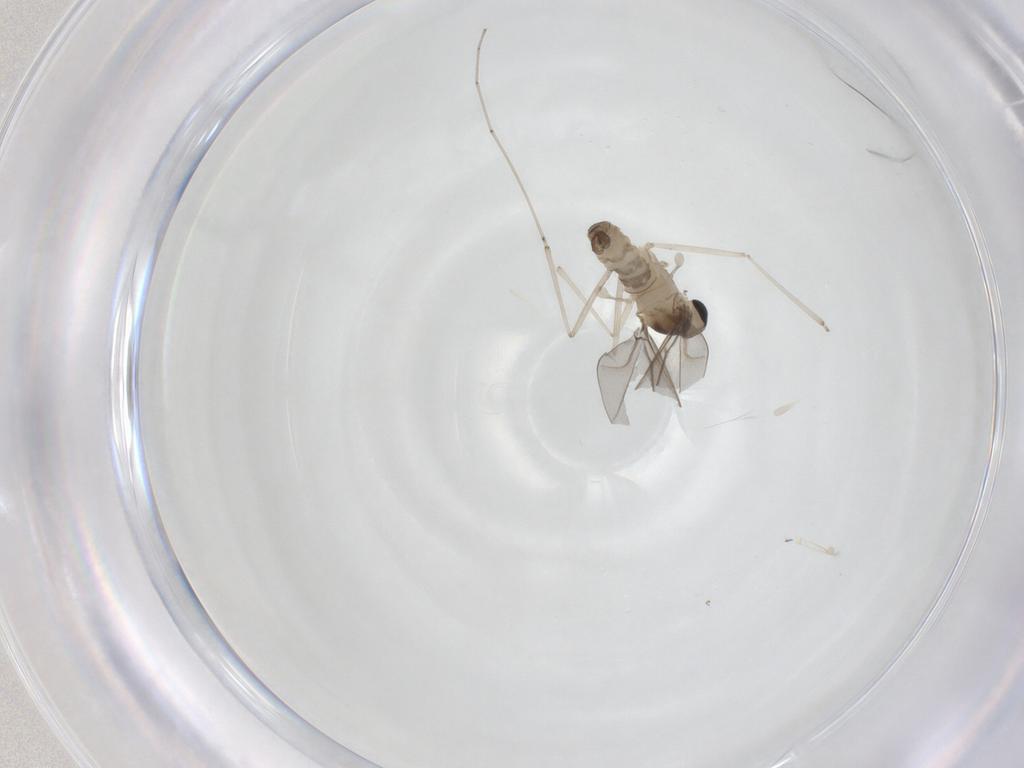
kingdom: Animalia
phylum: Arthropoda
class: Insecta
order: Diptera
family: Cecidomyiidae
